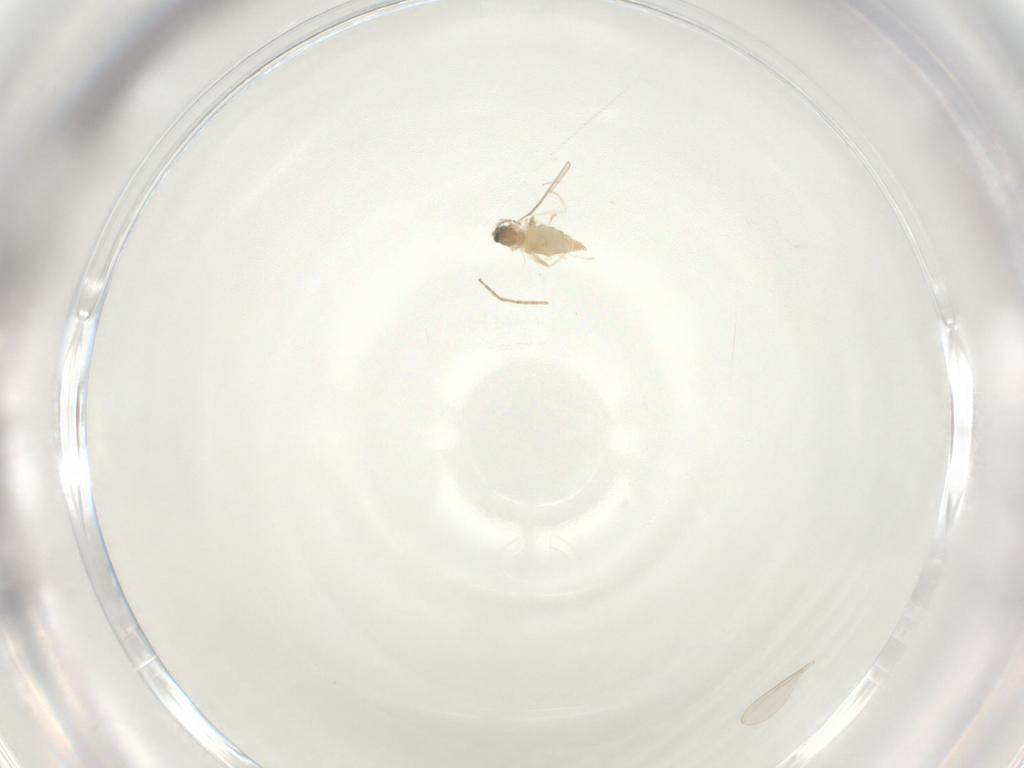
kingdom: Animalia
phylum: Arthropoda
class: Insecta
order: Diptera
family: Cecidomyiidae
